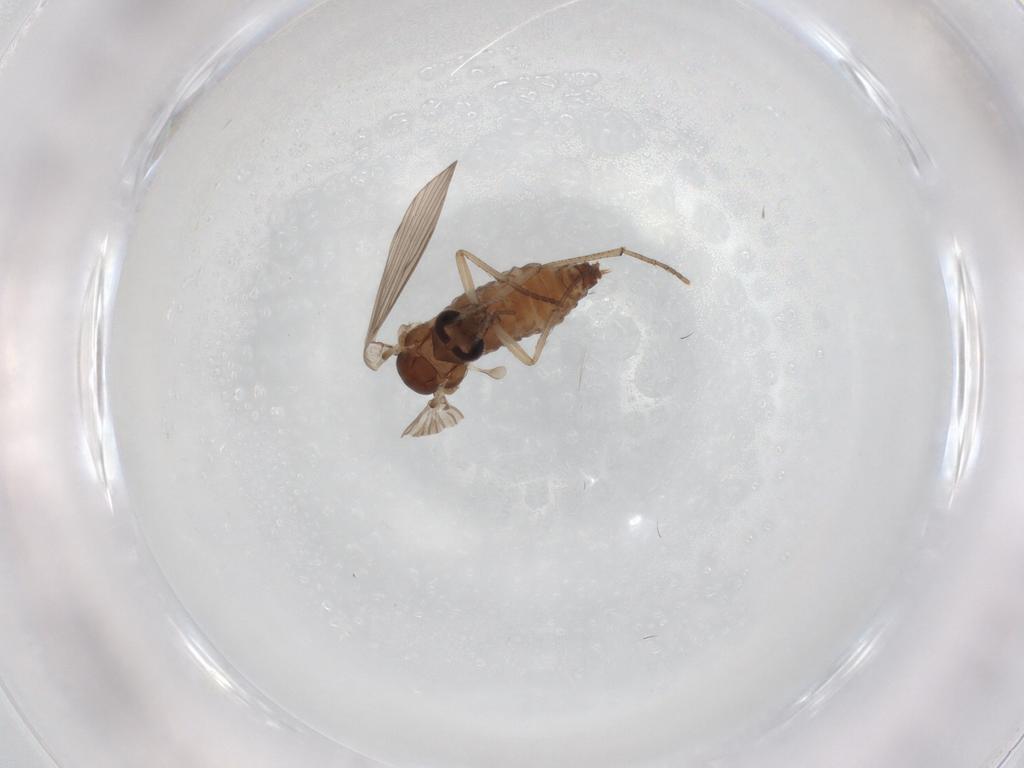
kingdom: Animalia
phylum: Arthropoda
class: Insecta
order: Diptera
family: Psychodidae
